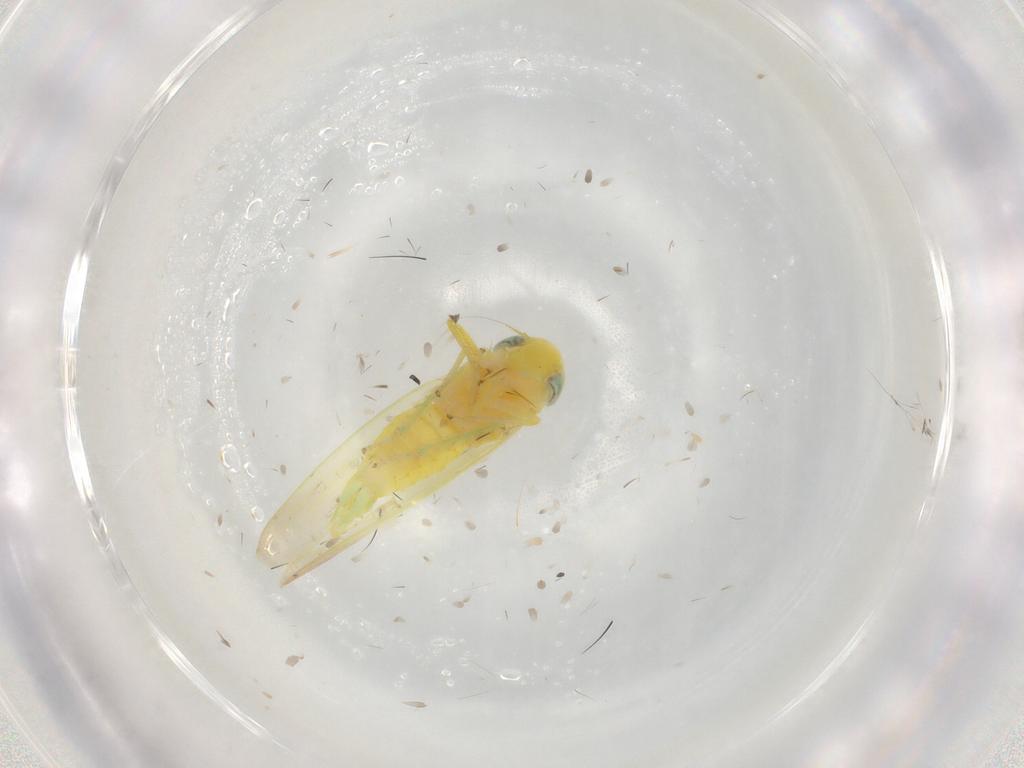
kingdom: Animalia
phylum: Arthropoda
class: Insecta
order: Hemiptera
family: Cicadellidae
